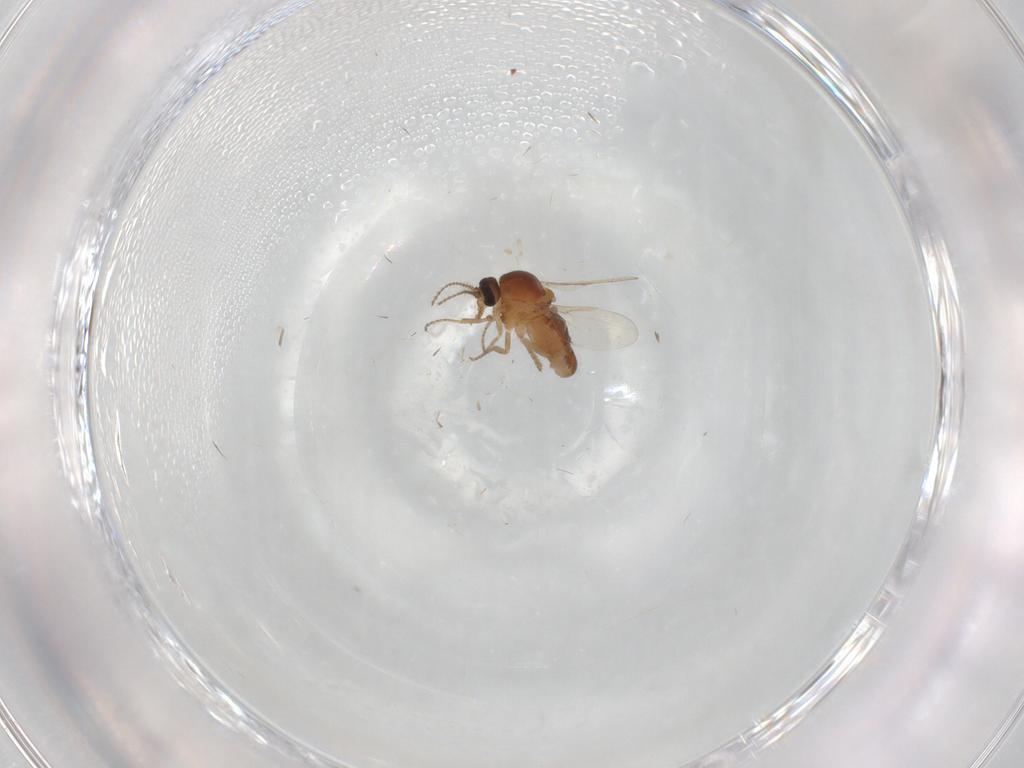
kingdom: Animalia
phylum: Arthropoda
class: Insecta
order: Diptera
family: Ceratopogonidae
